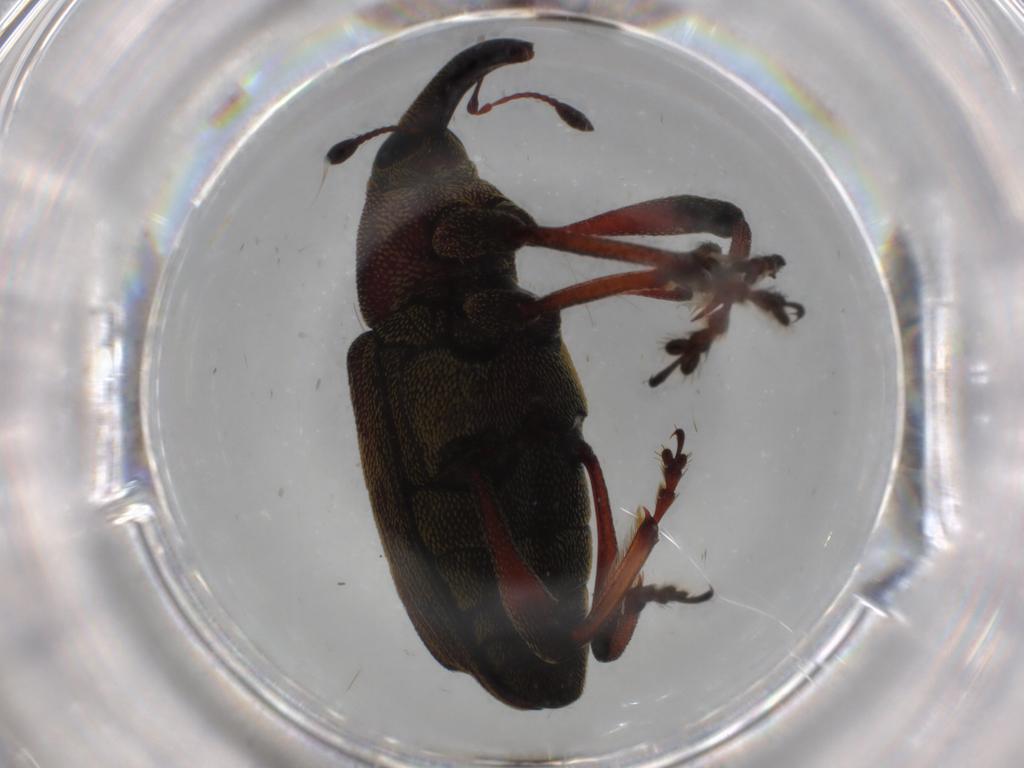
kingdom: Animalia
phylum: Arthropoda
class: Insecta
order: Coleoptera
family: Curculionidae
